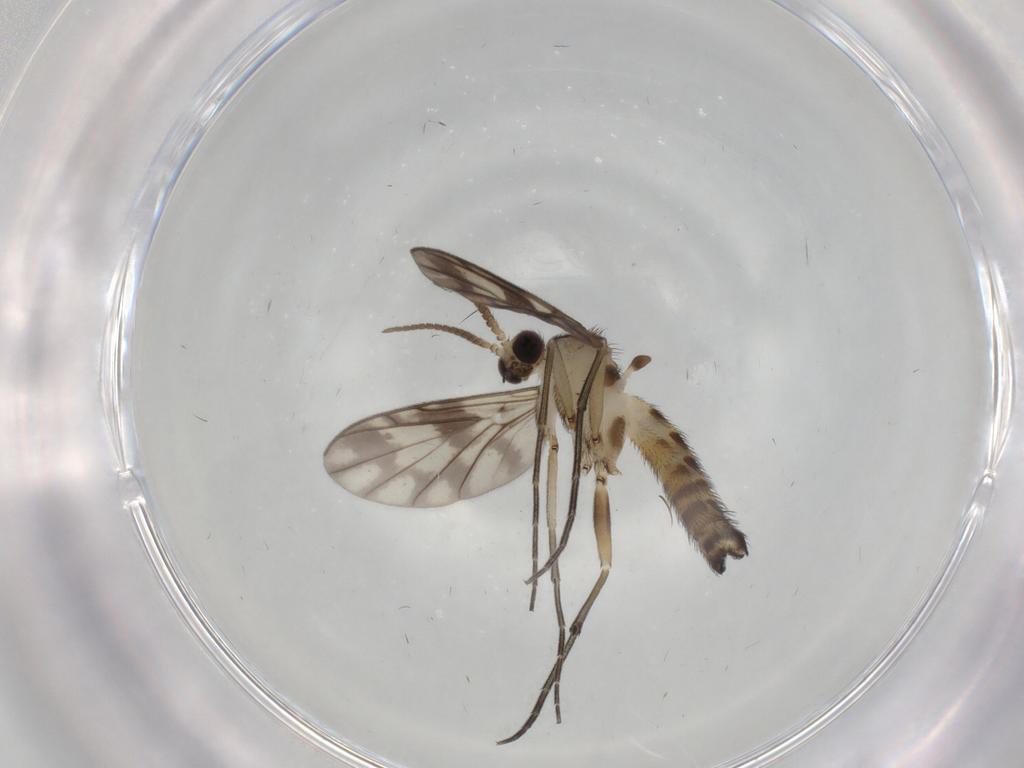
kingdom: Animalia
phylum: Arthropoda
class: Insecta
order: Diptera
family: Keroplatidae
